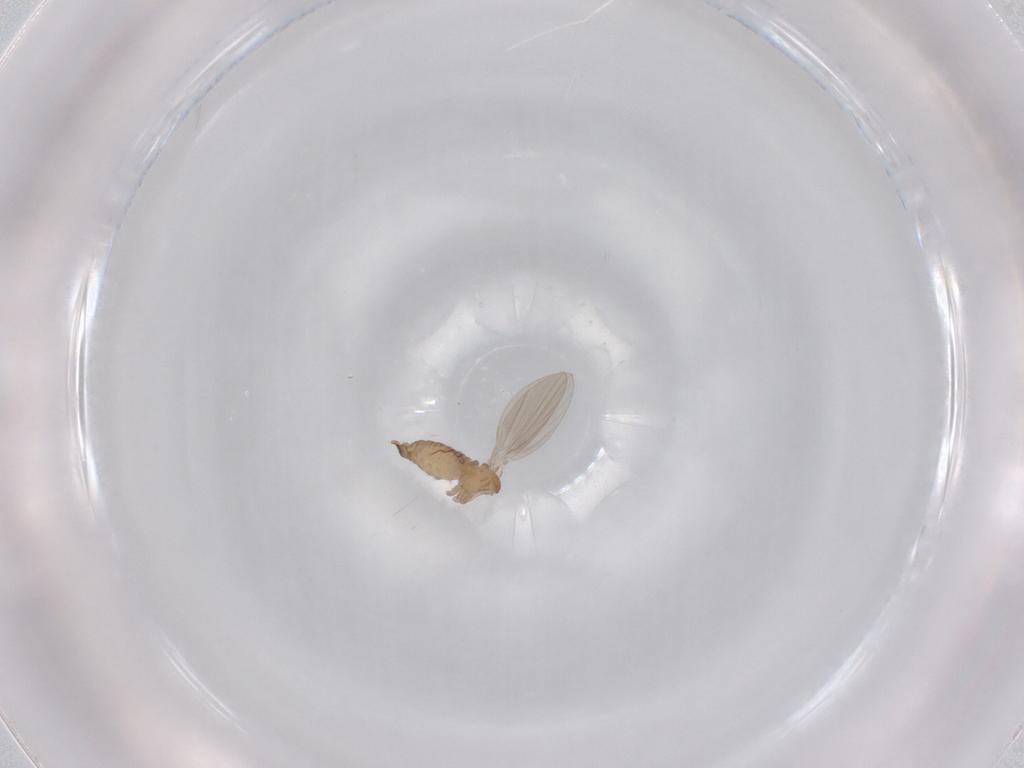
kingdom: Animalia
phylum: Arthropoda
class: Insecta
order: Diptera
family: Psychodidae
